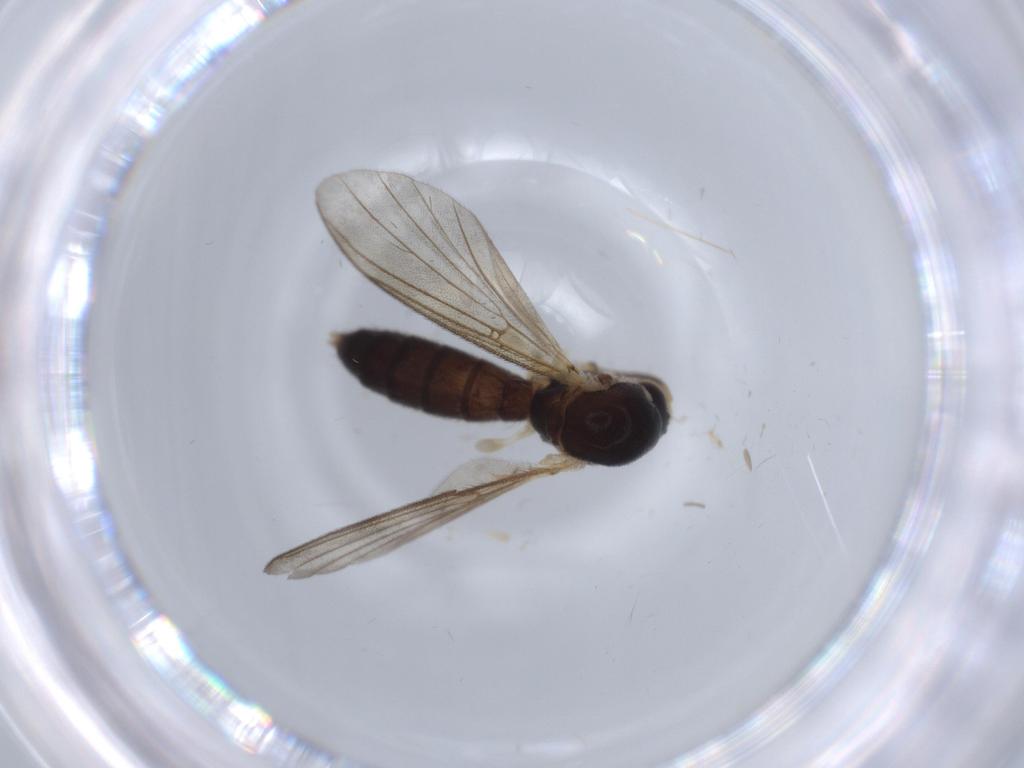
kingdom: Animalia
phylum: Arthropoda
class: Insecta
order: Diptera
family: Mycetophilidae
